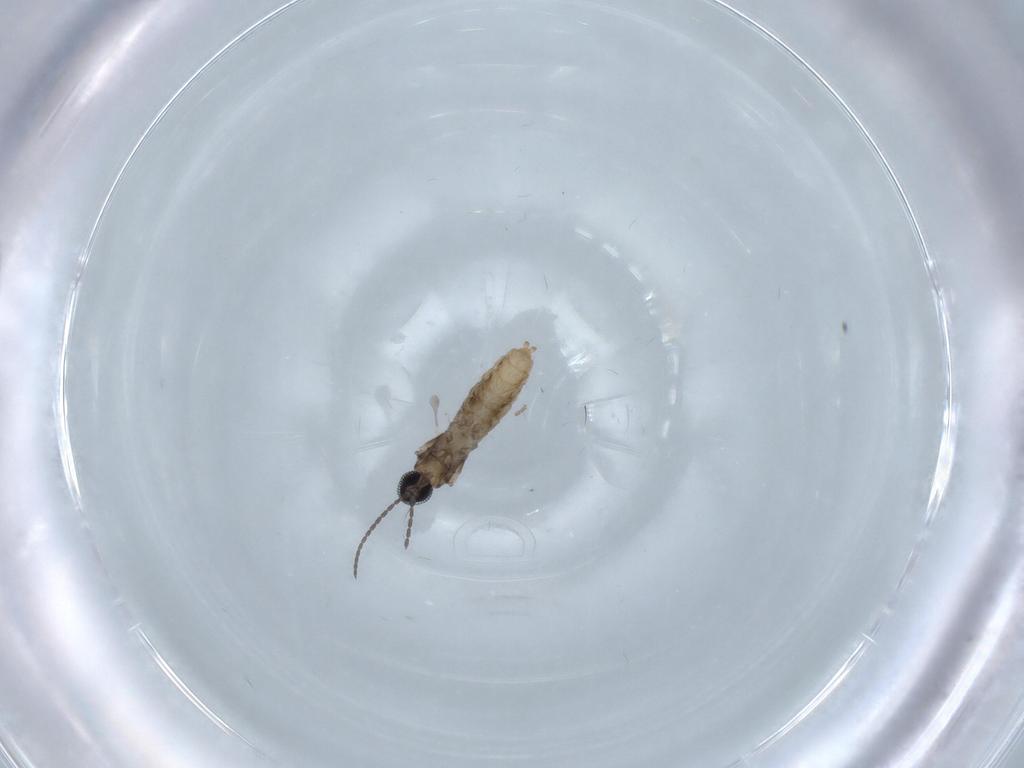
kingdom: Animalia
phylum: Arthropoda
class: Insecta
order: Diptera
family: Cecidomyiidae
